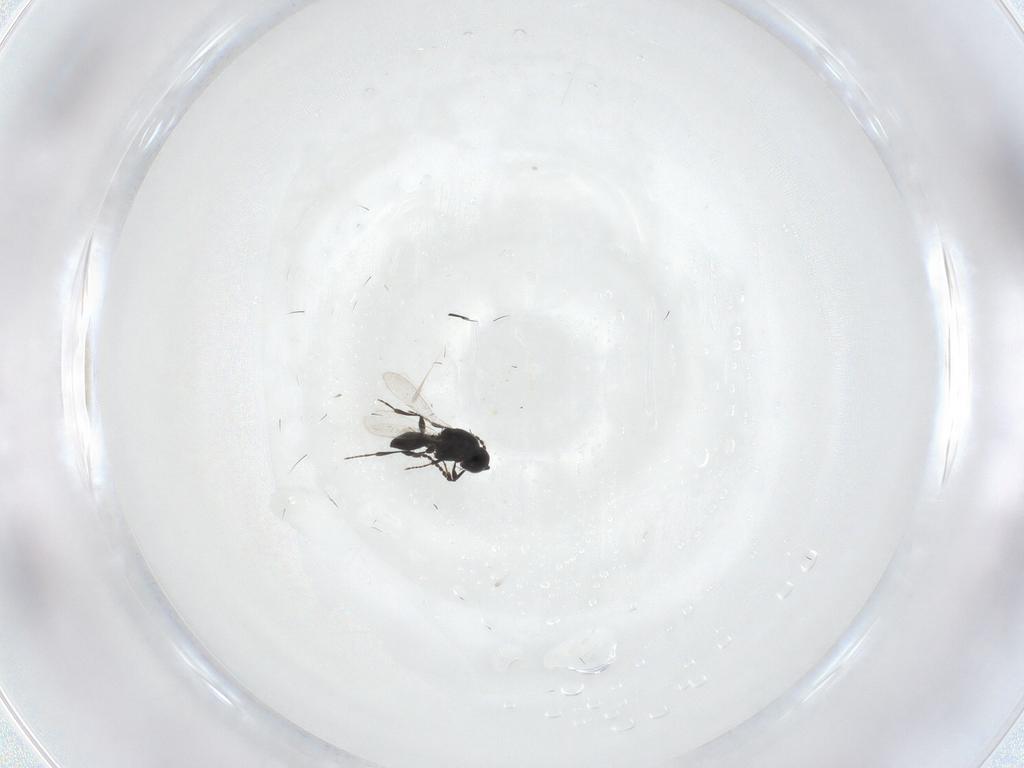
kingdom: Animalia
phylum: Arthropoda
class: Insecta
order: Hymenoptera
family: Platygastridae
